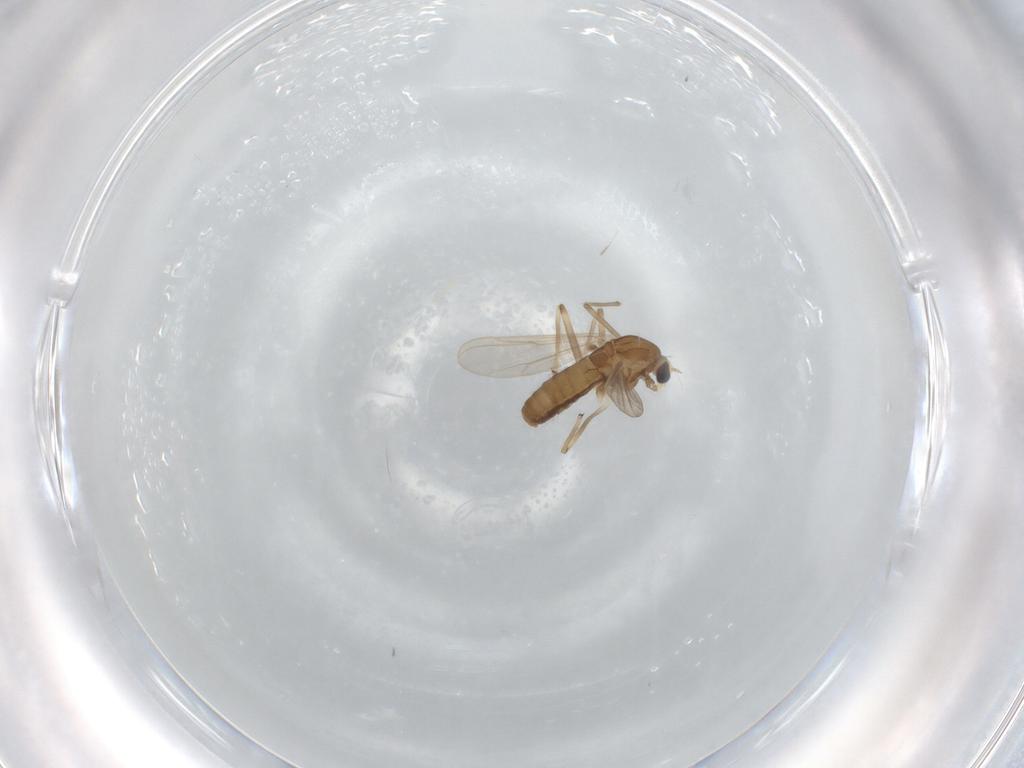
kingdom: Animalia
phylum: Arthropoda
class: Insecta
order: Diptera
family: Chironomidae
